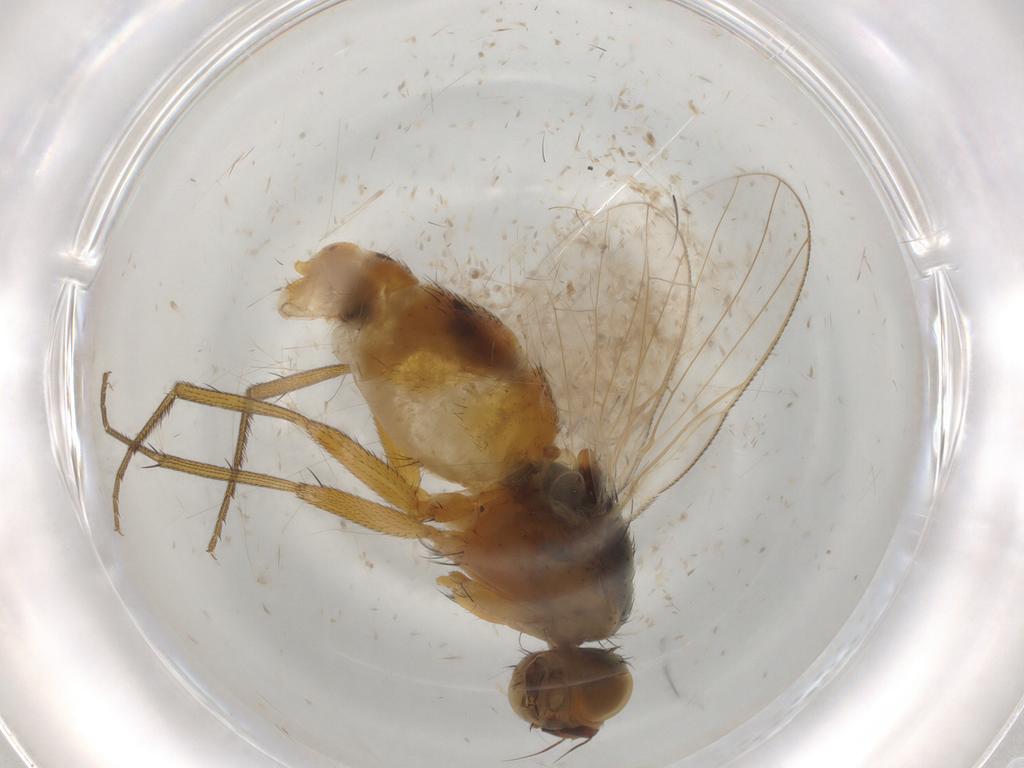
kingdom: Animalia
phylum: Arthropoda
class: Insecta
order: Diptera
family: Muscidae
